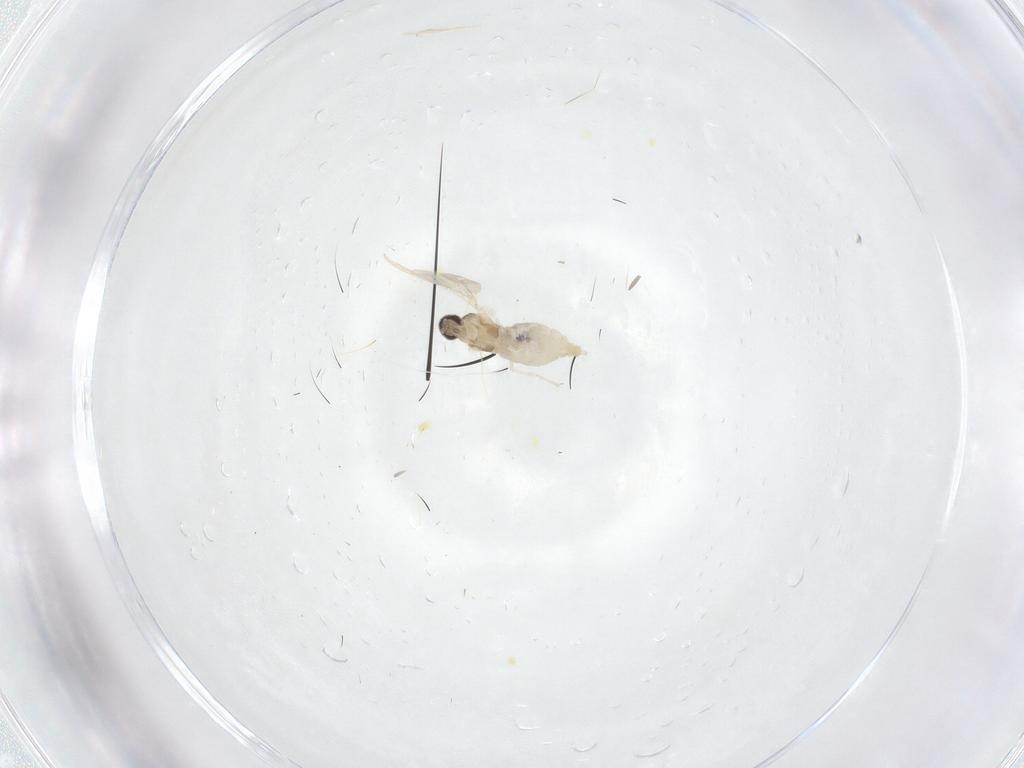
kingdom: Animalia
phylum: Arthropoda
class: Insecta
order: Diptera
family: Cecidomyiidae
